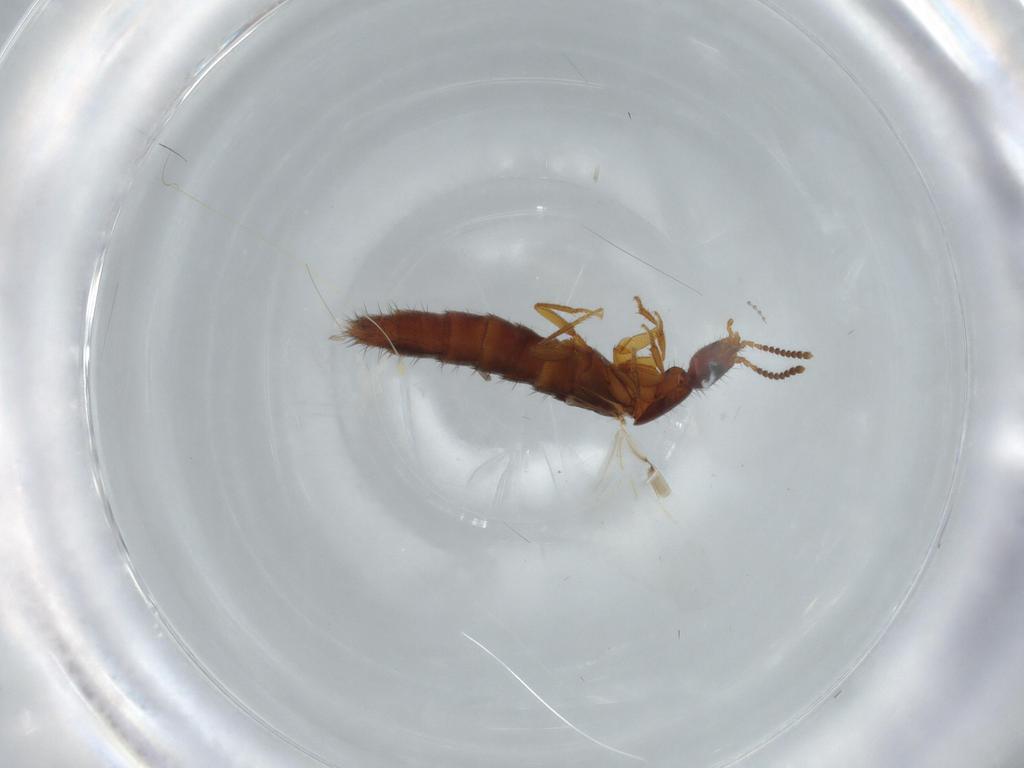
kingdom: Animalia
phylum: Arthropoda
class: Insecta
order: Coleoptera
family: Staphylinidae
